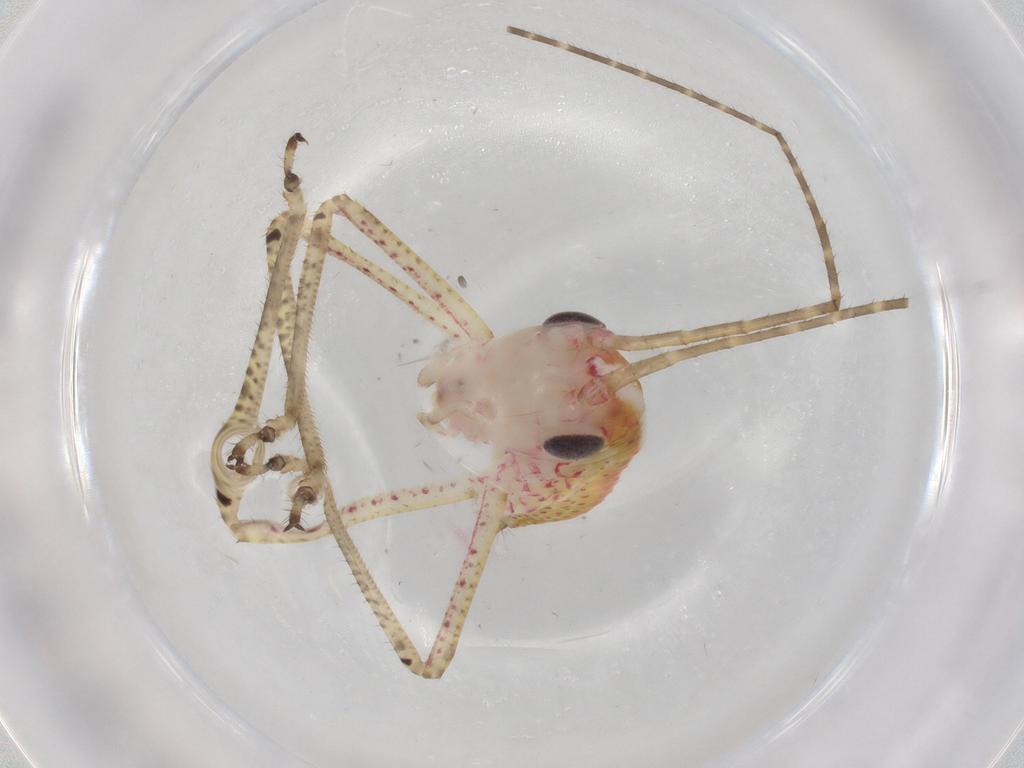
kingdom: Animalia
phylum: Arthropoda
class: Insecta
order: Orthoptera
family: Tettigoniidae
